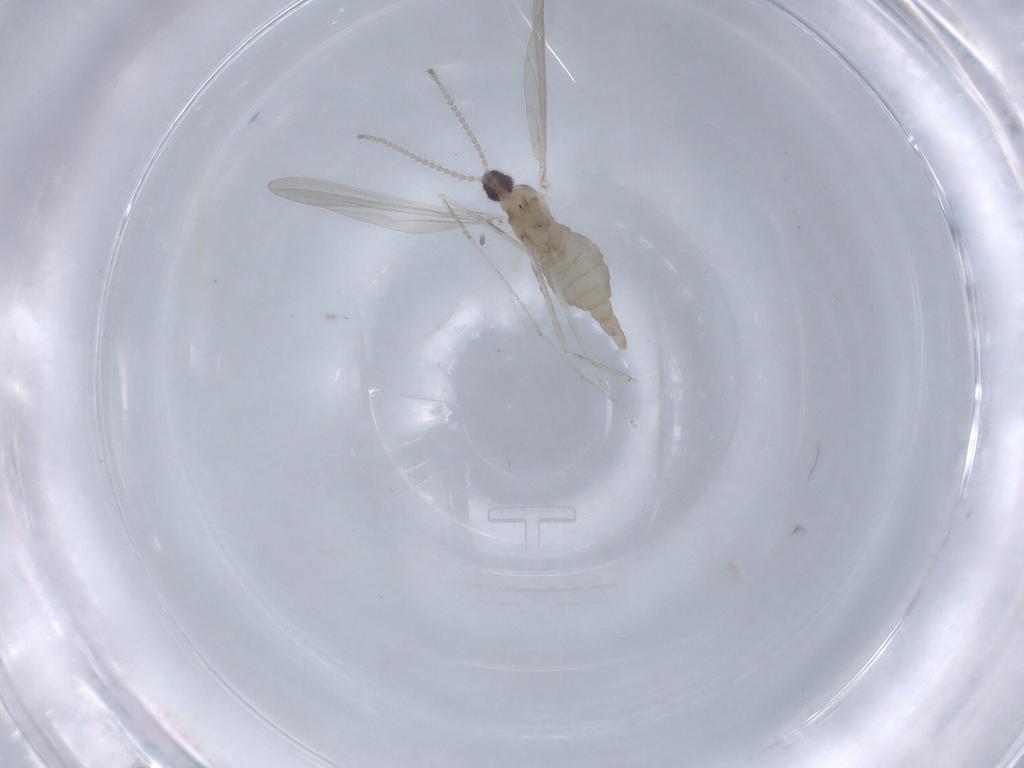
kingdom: Animalia
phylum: Arthropoda
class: Insecta
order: Diptera
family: Cecidomyiidae
